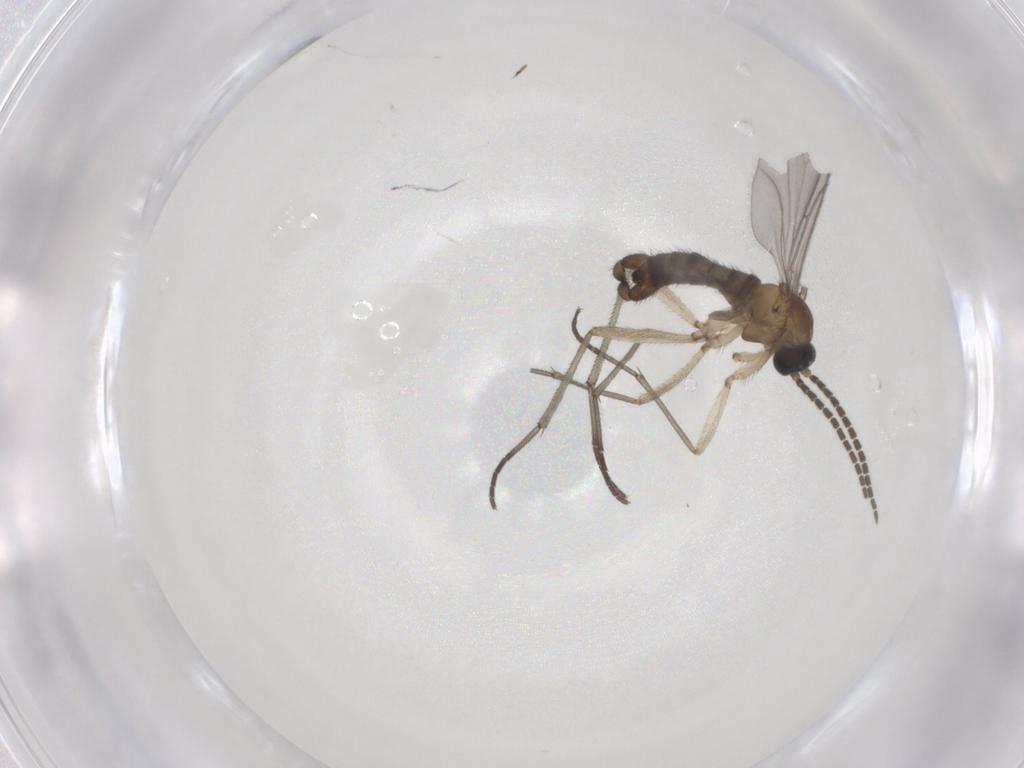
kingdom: Animalia
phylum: Arthropoda
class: Insecta
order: Diptera
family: Sciaridae
